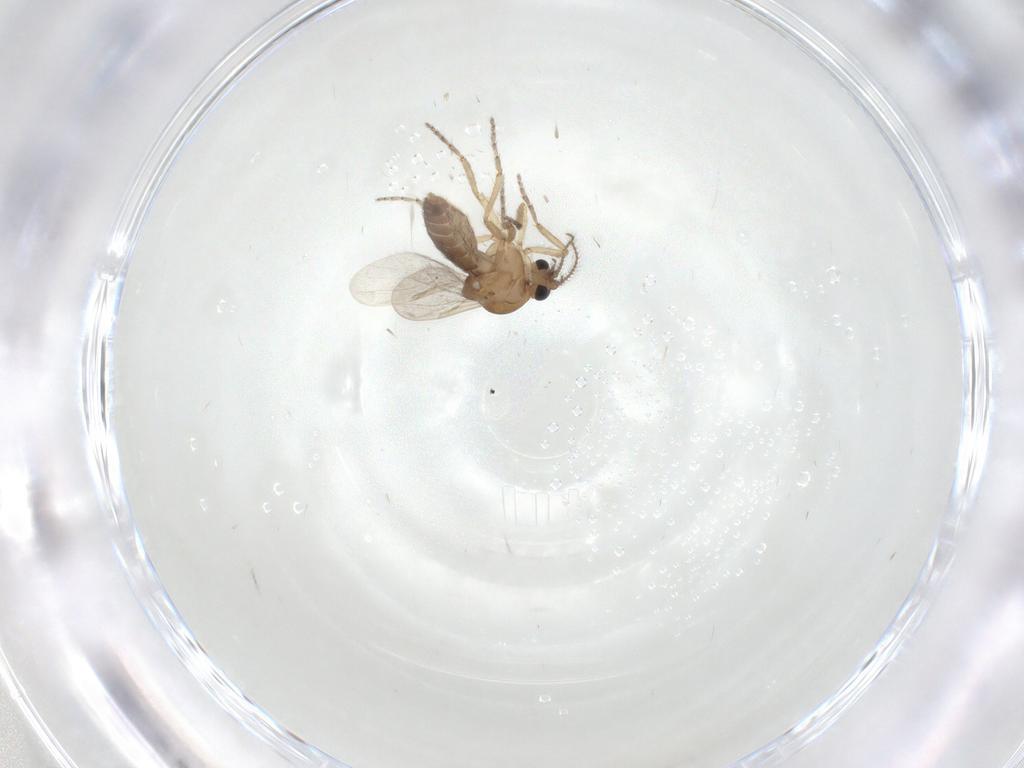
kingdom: Animalia
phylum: Arthropoda
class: Insecta
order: Diptera
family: Ceratopogonidae
